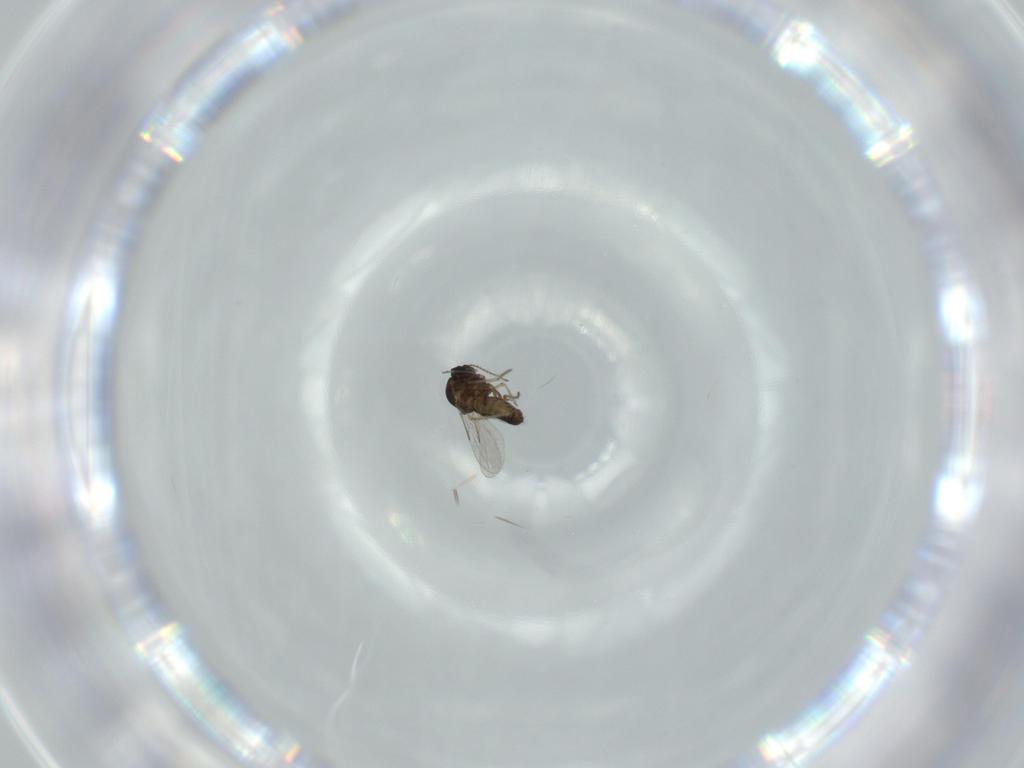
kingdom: Animalia
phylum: Arthropoda
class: Insecta
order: Diptera
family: Ceratopogonidae
